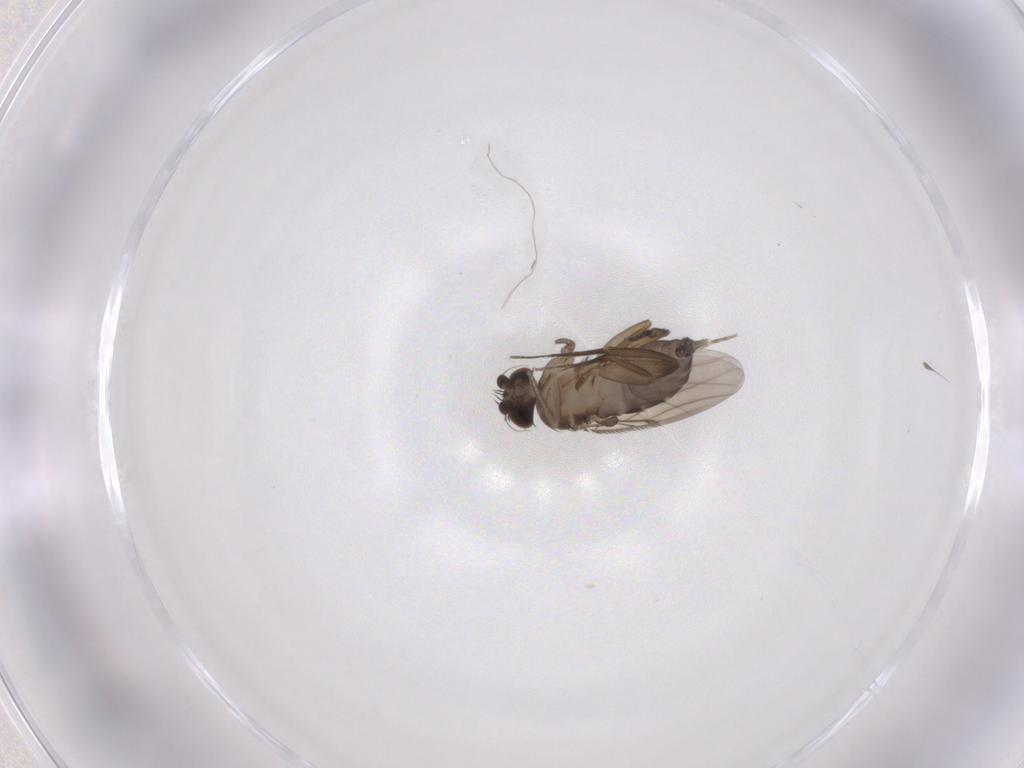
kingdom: Animalia
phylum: Arthropoda
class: Insecta
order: Diptera
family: Phoridae
